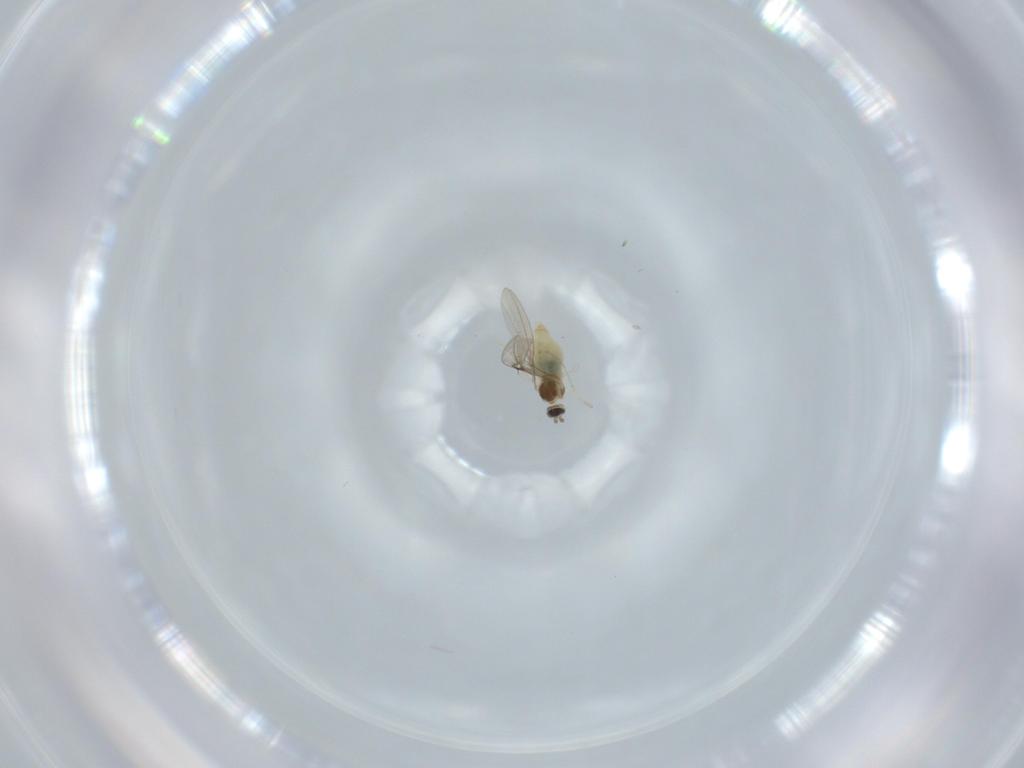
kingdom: Animalia
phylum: Arthropoda
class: Insecta
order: Diptera
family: Cecidomyiidae
